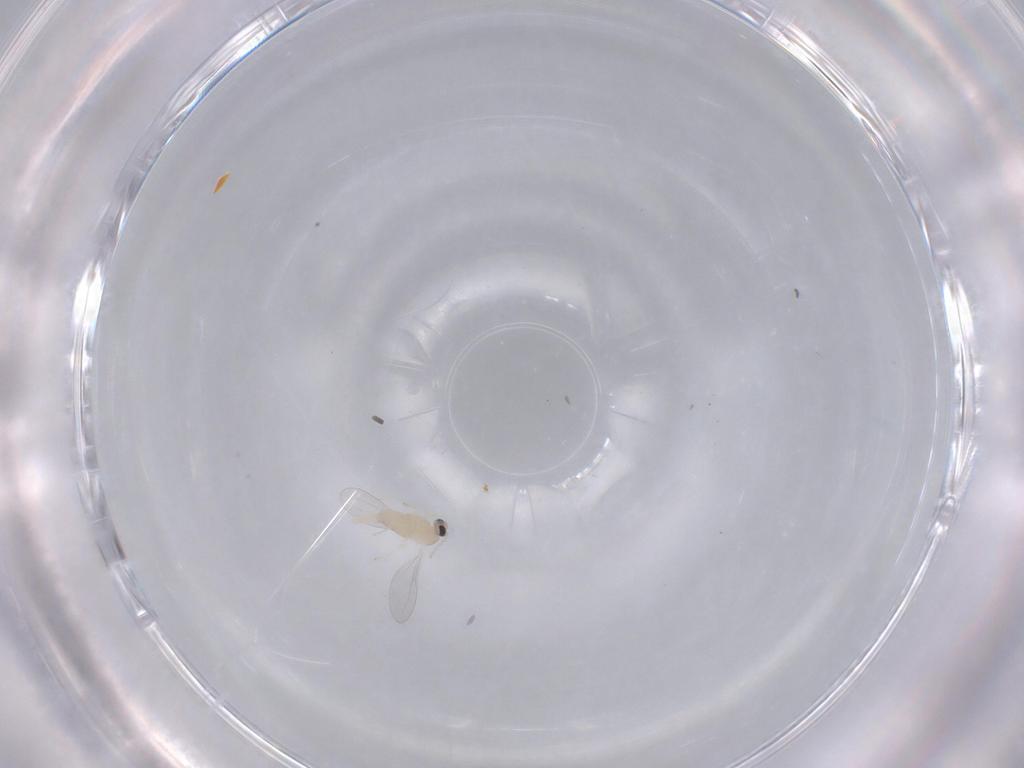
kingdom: Animalia
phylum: Arthropoda
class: Insecta
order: Diptera
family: Cecidomyiidae
